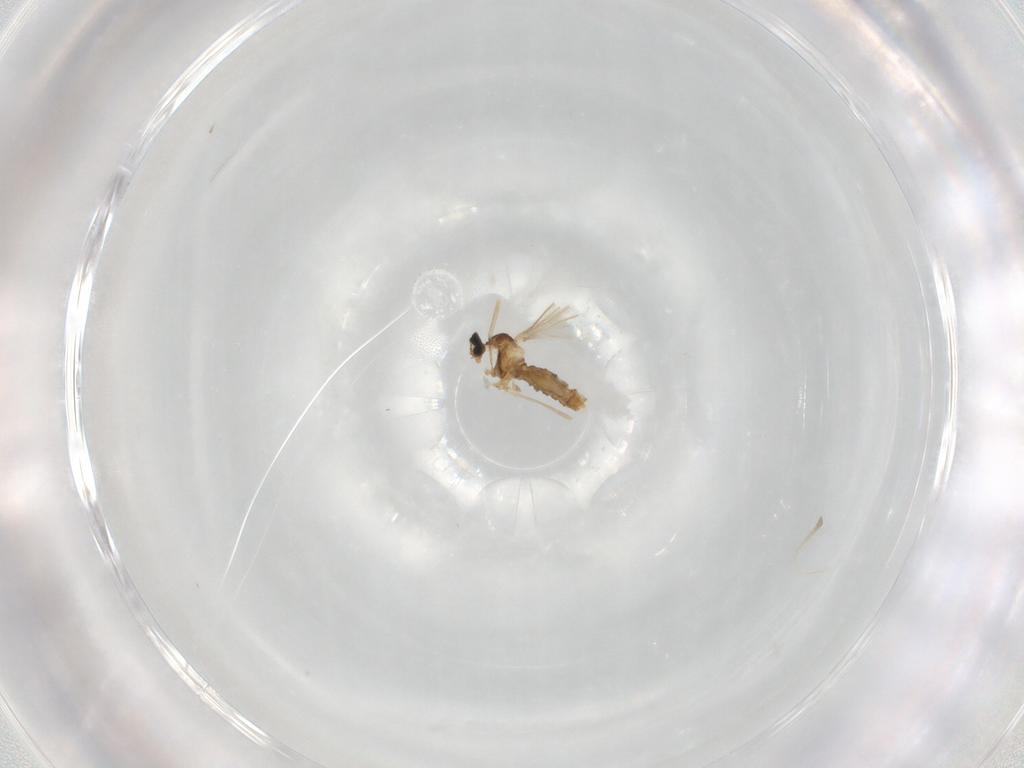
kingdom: Animalia
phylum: Arthropoda
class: Insecta
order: Diptera
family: Cecidomyiidae
